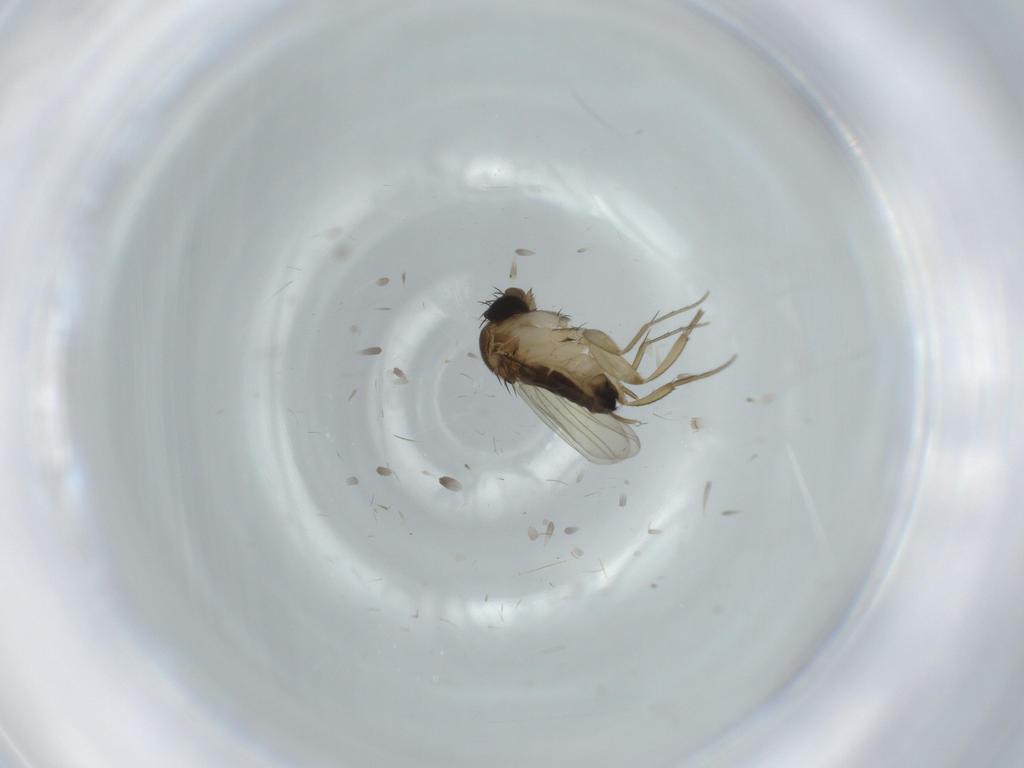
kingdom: Animalia
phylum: Arthropoda
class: Insecta
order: Diptera
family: Phoridae
